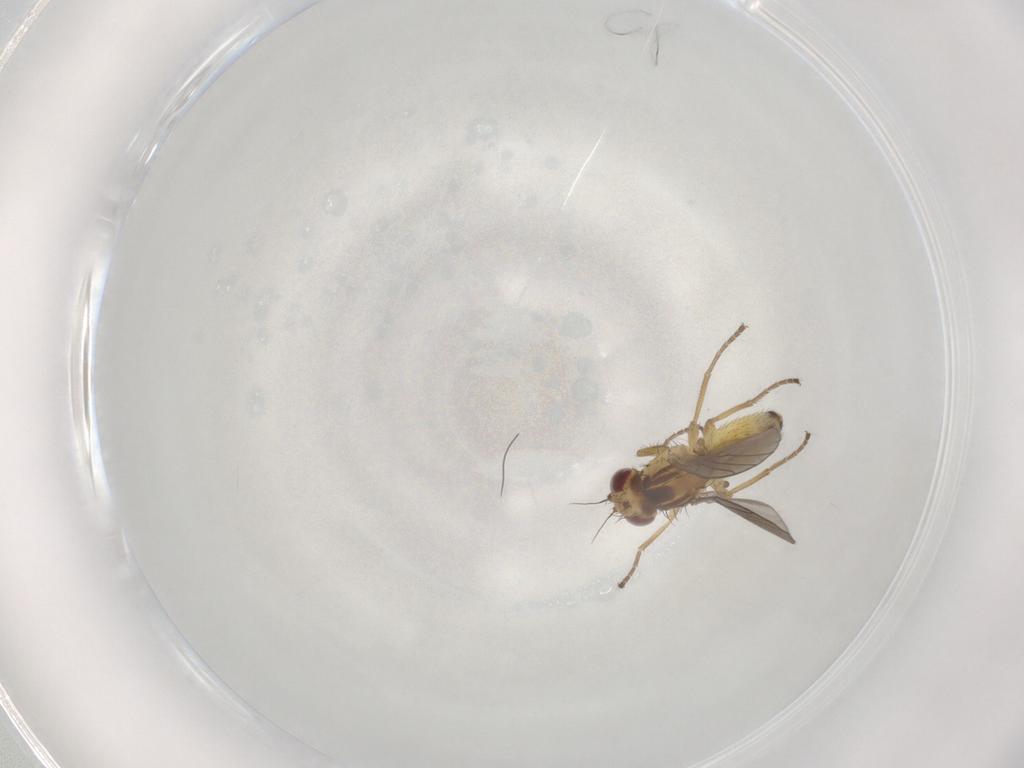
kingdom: Animalia
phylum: Arthropoda
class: Insecta
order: Diptera
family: Agromyzidae
